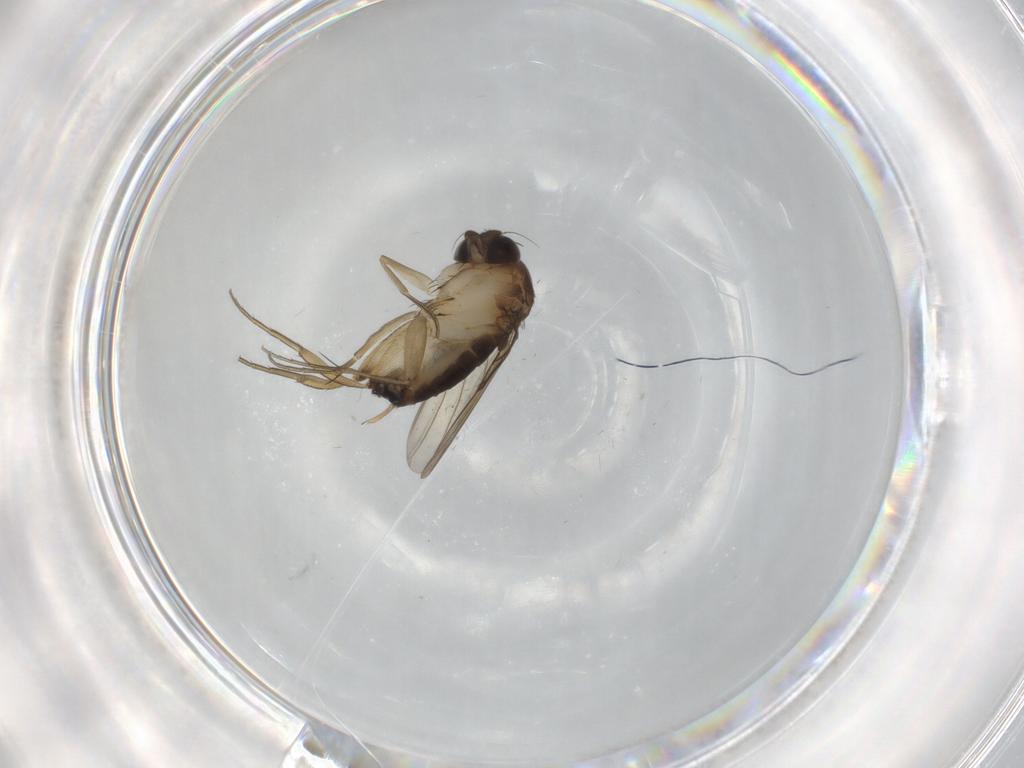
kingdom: Animalia
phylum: Arthropoda
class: Insecta
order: Diptera
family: Phoridae
